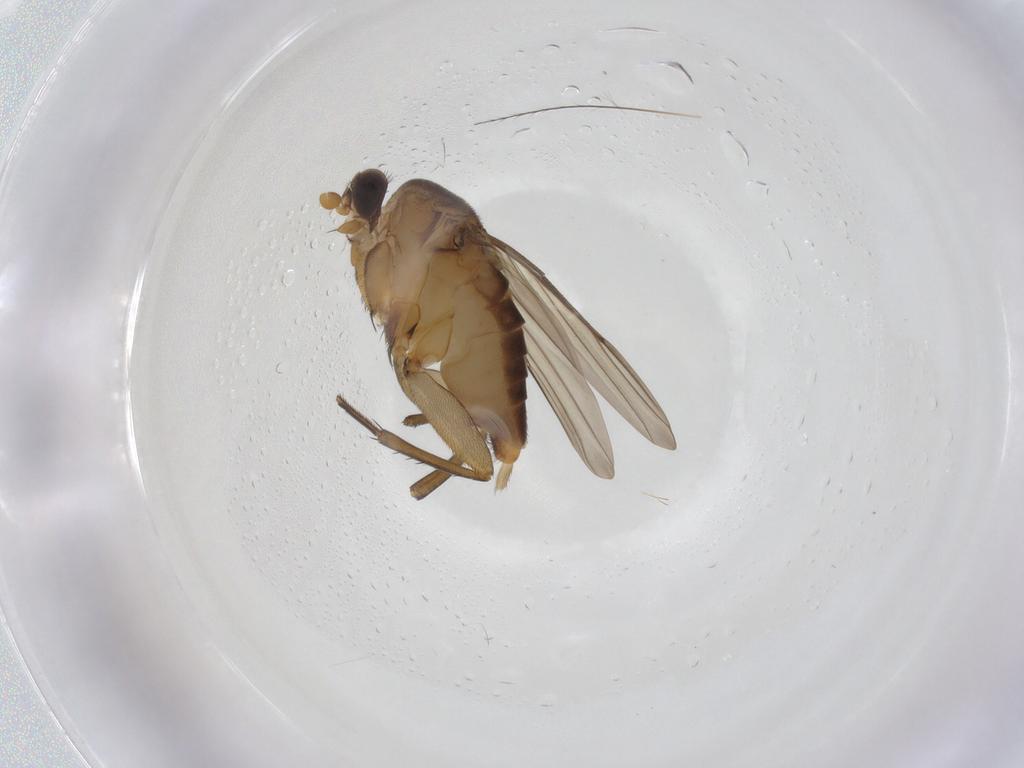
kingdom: Animalia
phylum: Arthropoda
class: Insecta
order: Diptera
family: Phoridae
